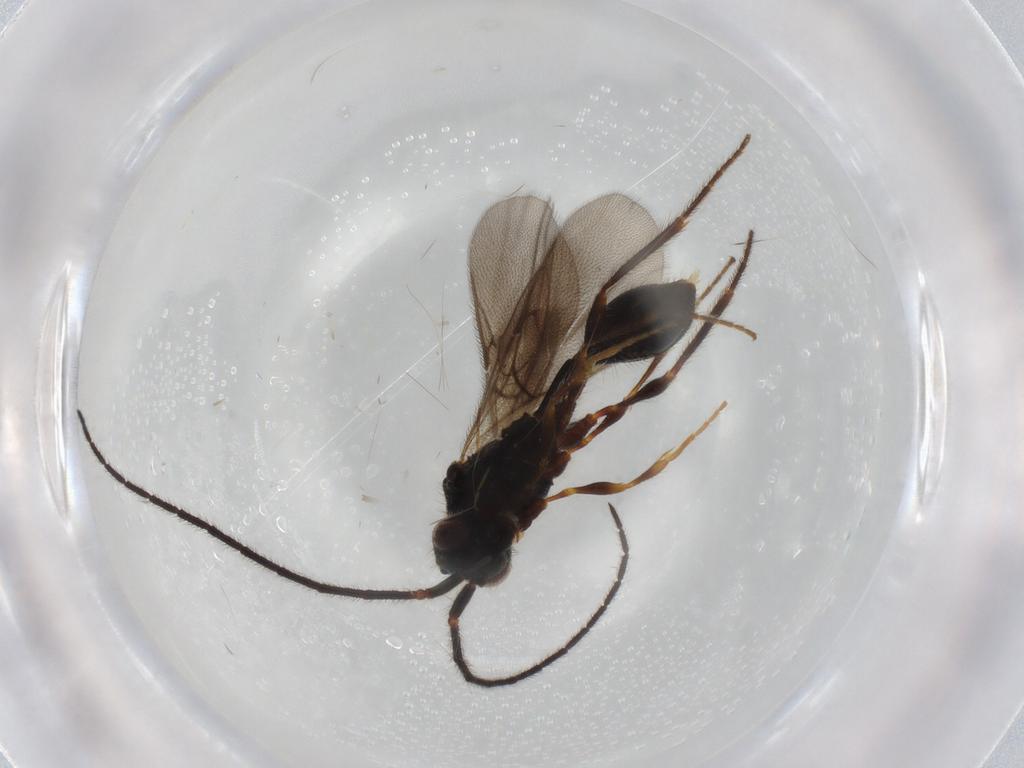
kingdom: Animalia
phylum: Arthropoda
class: Insecta
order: Hymenoptera
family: Diapriidae
